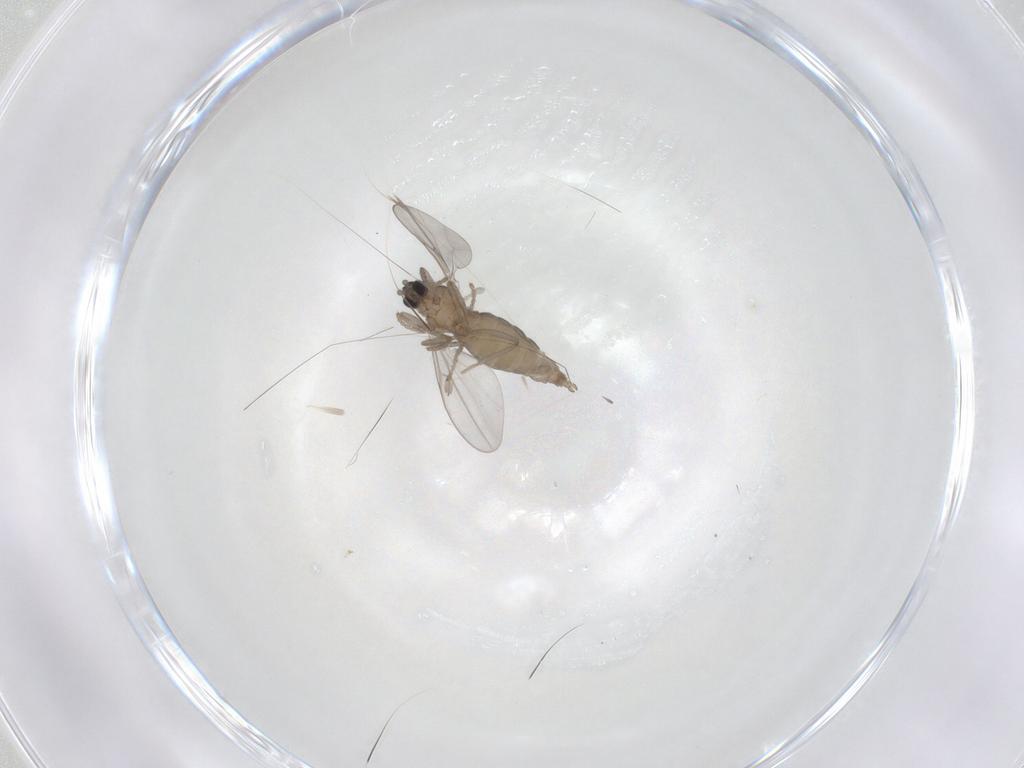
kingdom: Animalia
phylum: Arthropoda
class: Insecta
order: Diptera
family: Cecidomyiidae
